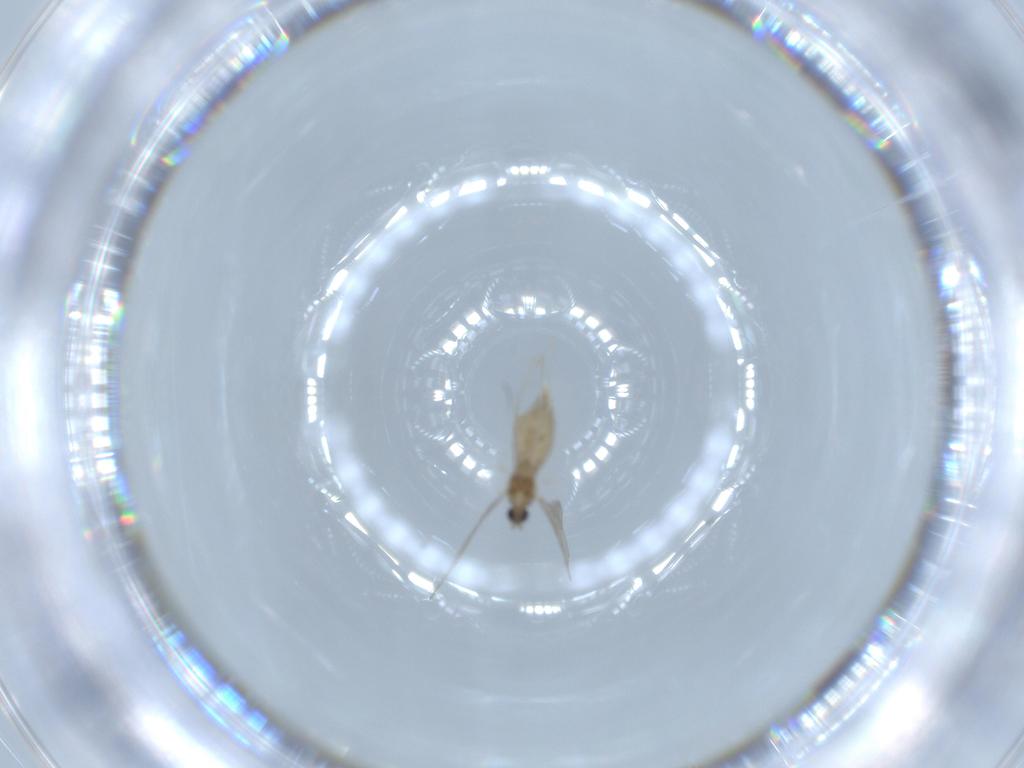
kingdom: Animalia
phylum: Arthropoda
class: Insecta
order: Diptera
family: Cecidomyiidae
